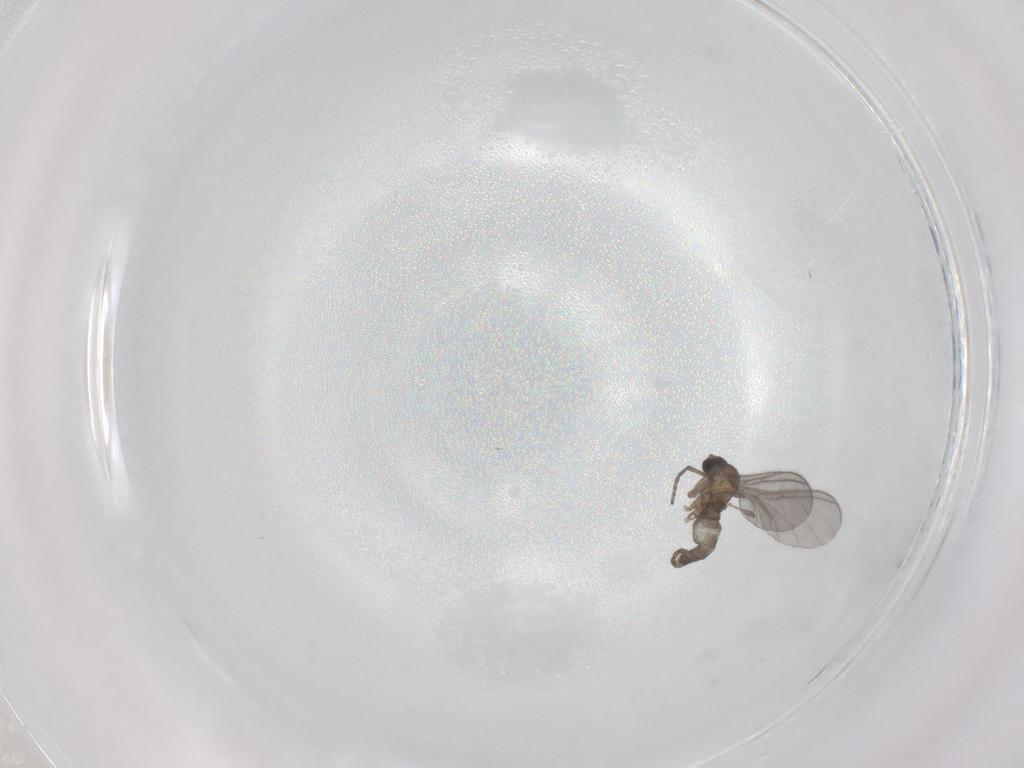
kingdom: Animalia
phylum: Arthropoda
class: Insecta
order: Diptera
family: Sciaridae
